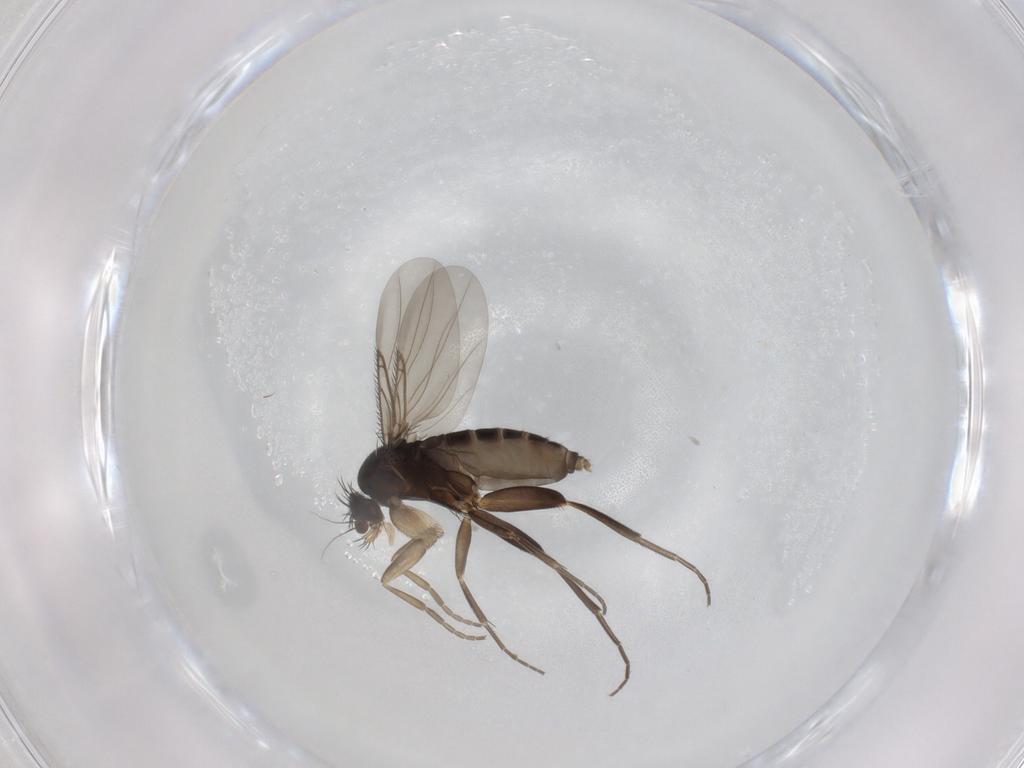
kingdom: Animalia
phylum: Arthropoda
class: Insecta
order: Diptera
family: Phoridae
